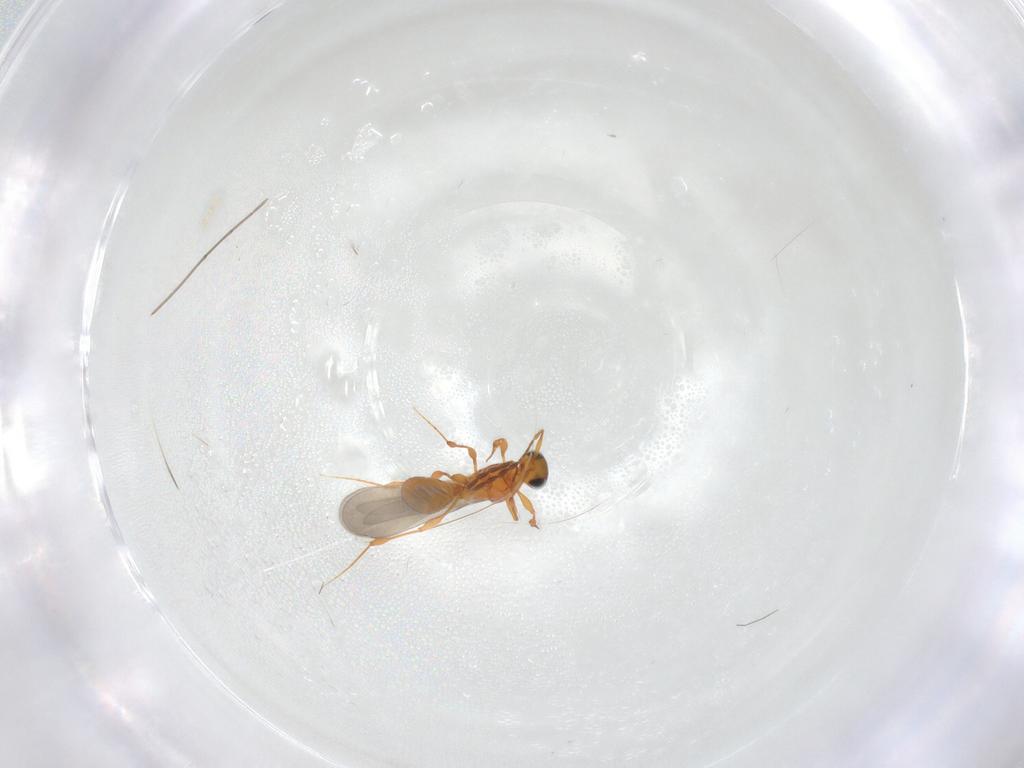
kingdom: Animalia
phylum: Arthropoda
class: Insecta
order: Hymenoptera
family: Platygastridae
